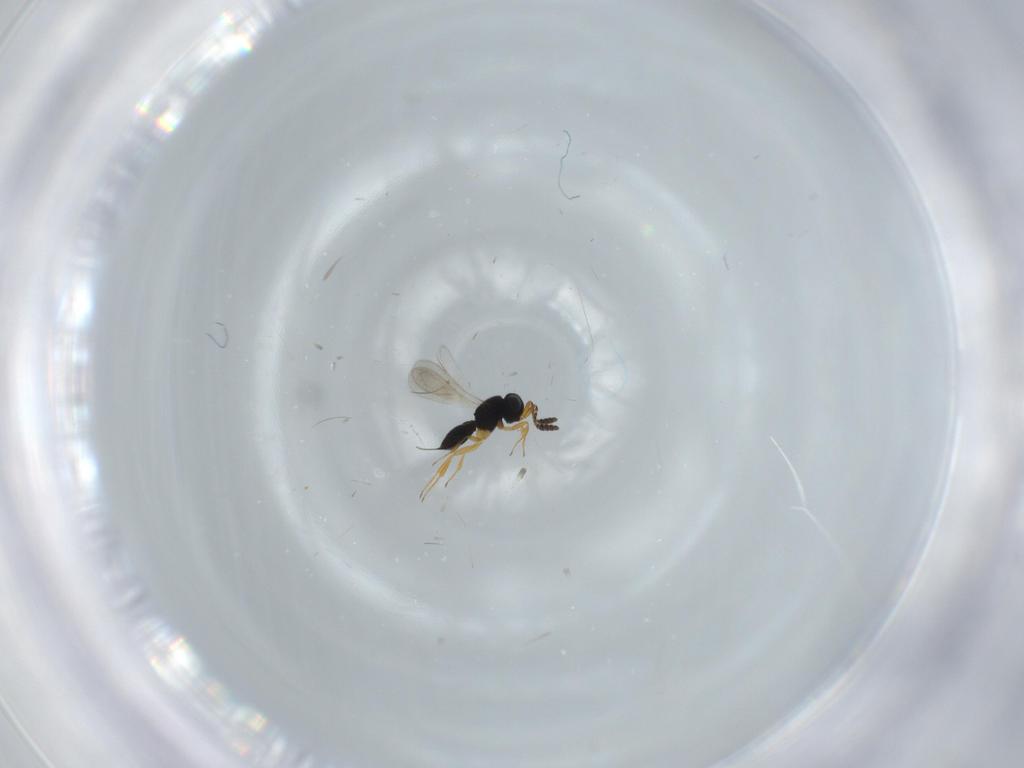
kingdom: Animalia
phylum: Arthropoda
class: Insecta
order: Hymenoptera
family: Scelionidae
